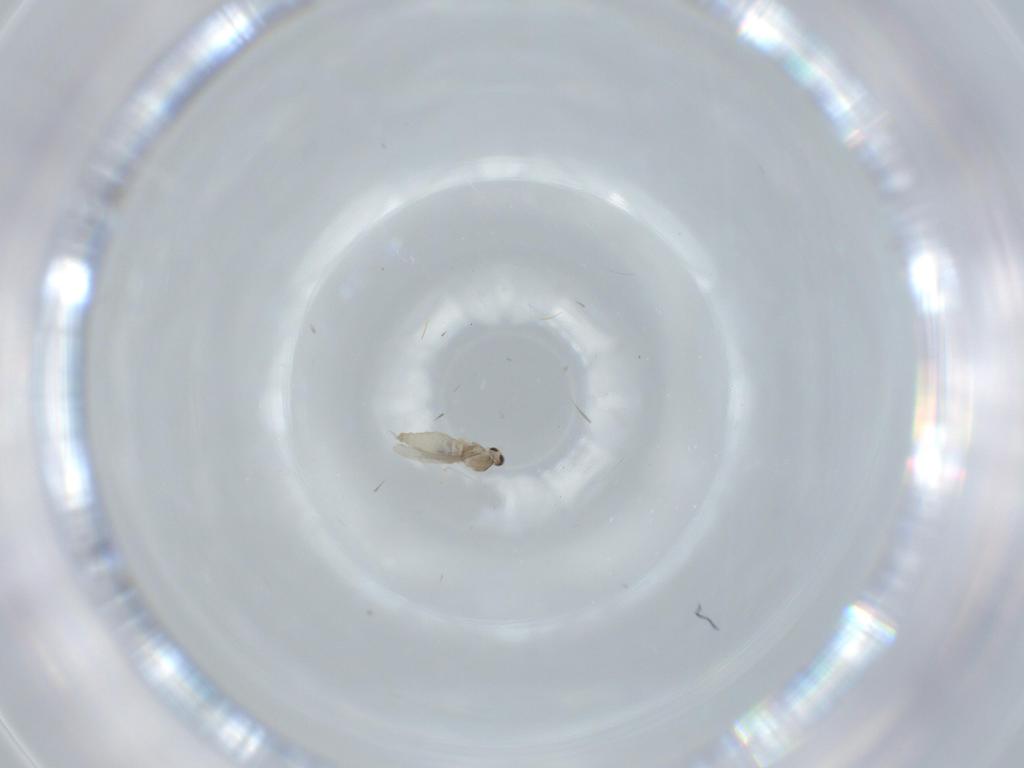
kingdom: Animalia
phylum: Arthropoda
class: Insecta
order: Diptera
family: Cecidomyiidae
